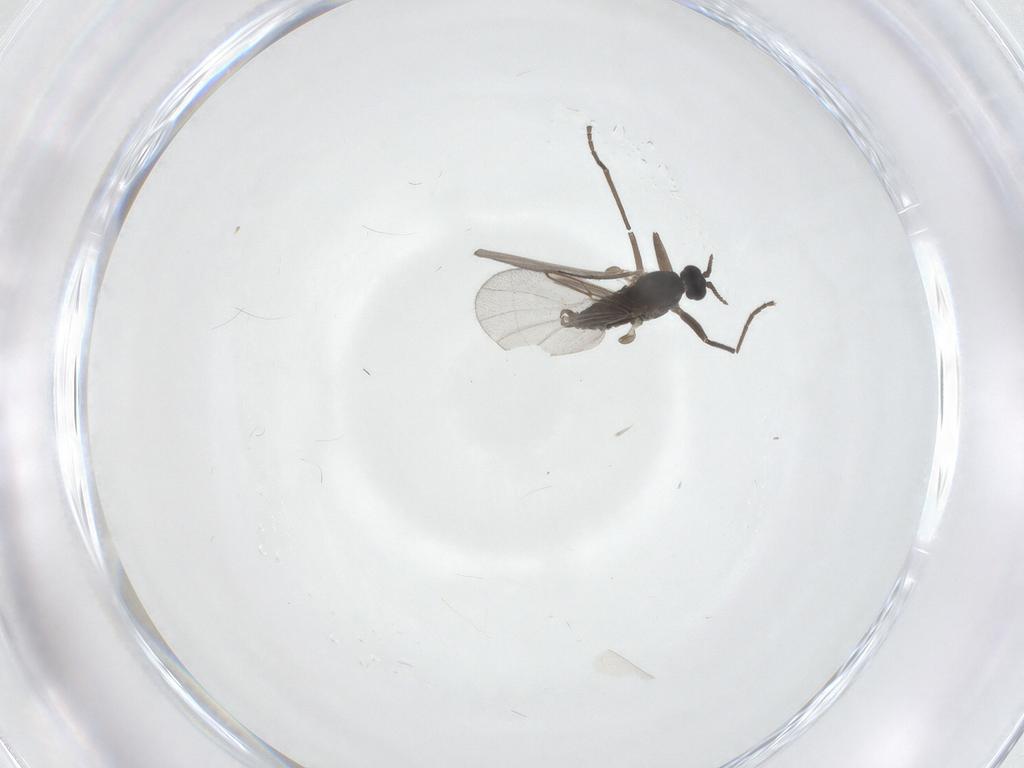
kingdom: Animalia
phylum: Arthropoda
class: Insecta
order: Diptera
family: Cecidomyiidae
